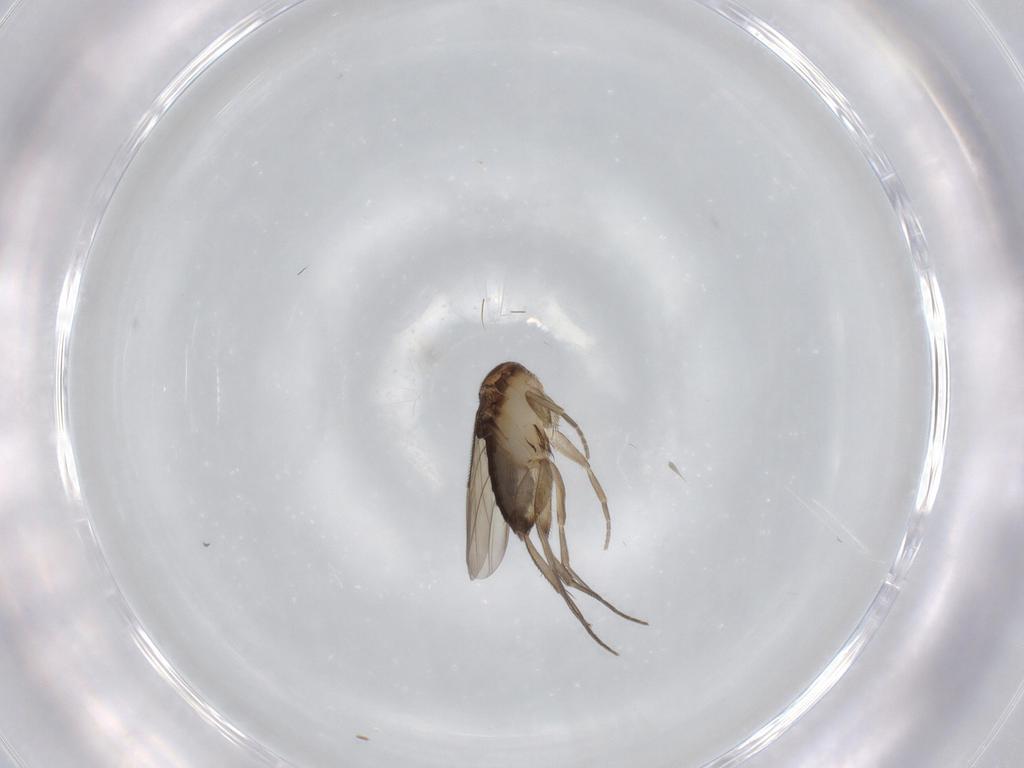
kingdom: Animalia
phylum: Arthropoda
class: Insecta
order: Diptera
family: Phoridae
